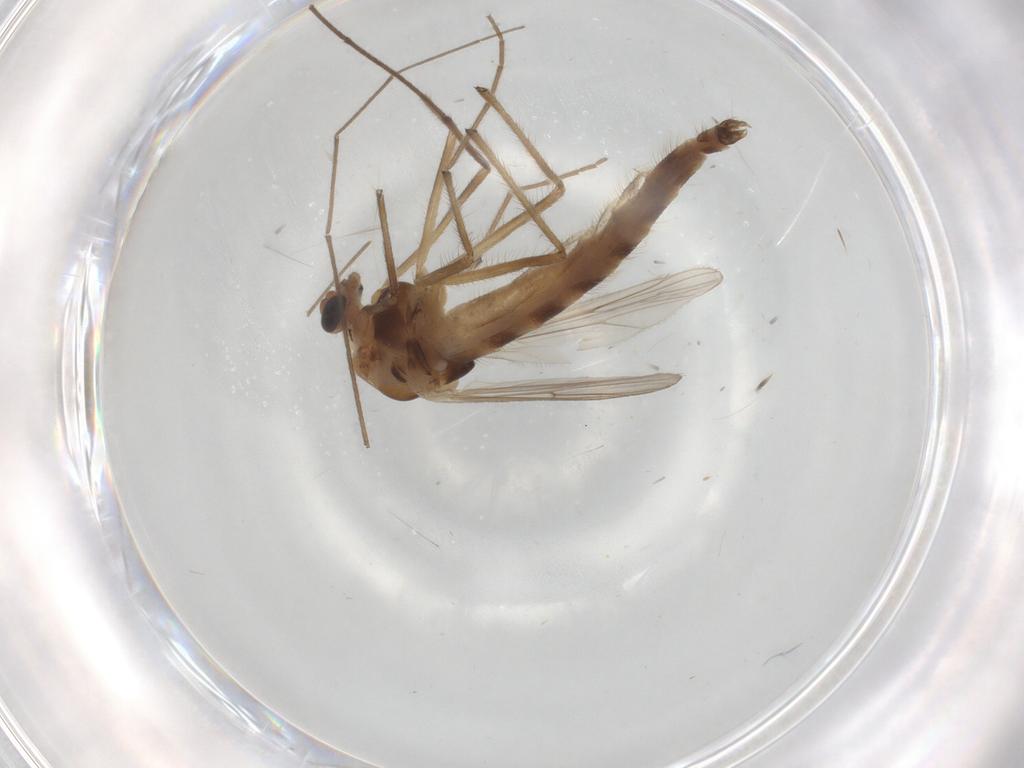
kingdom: Animalia
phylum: Arthropoda
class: Insecta
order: Diptera
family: Chironomidae
